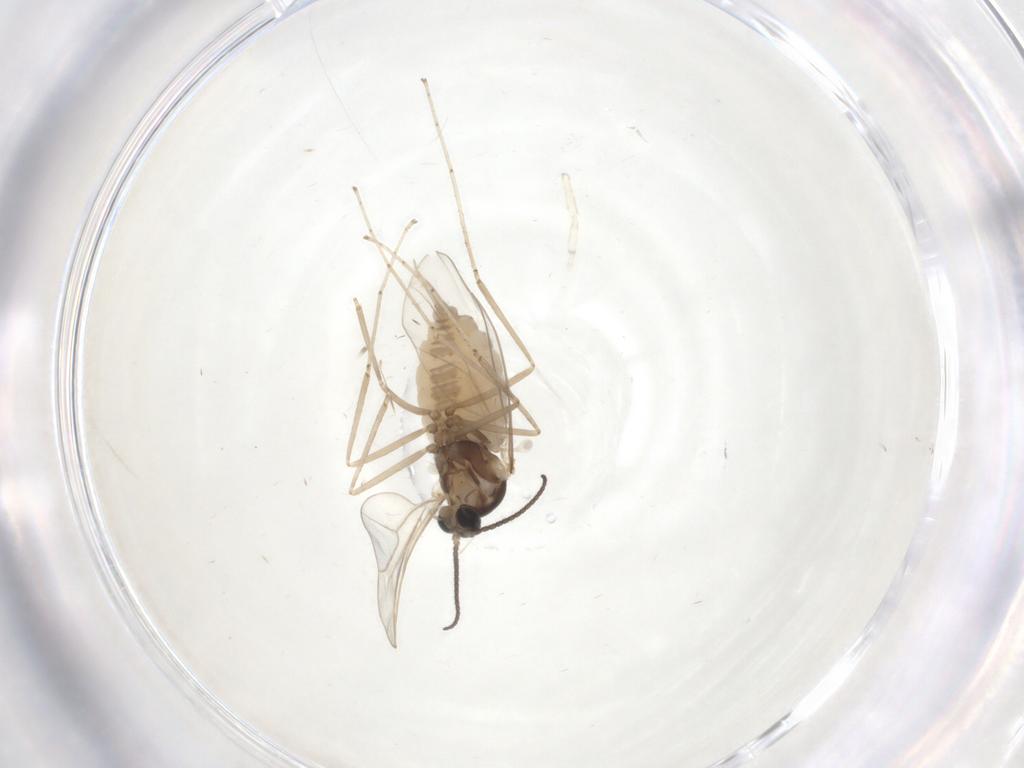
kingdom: Animalia
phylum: Arthropoda
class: Insecta
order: Diptera
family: Cecidomyiidae
